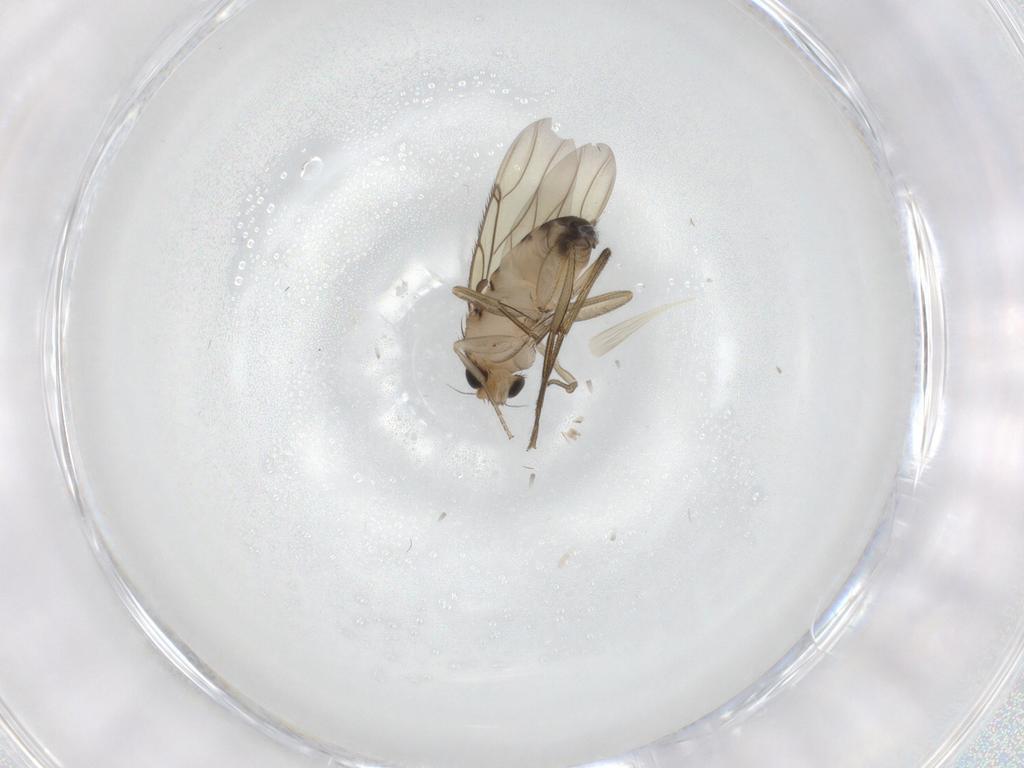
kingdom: Animalia
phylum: Arthropoda
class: Insecta
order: Diptera
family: Phoridae
